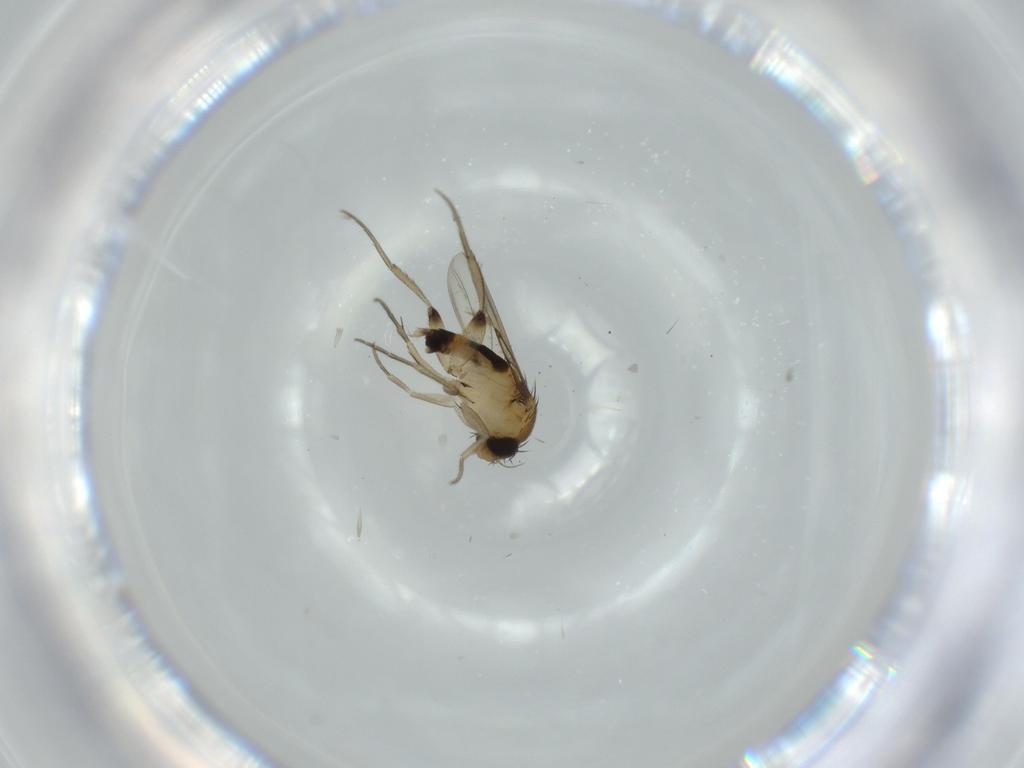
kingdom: Animalia
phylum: Arthropoda
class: Insecta
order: Diptera
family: Phoridae
